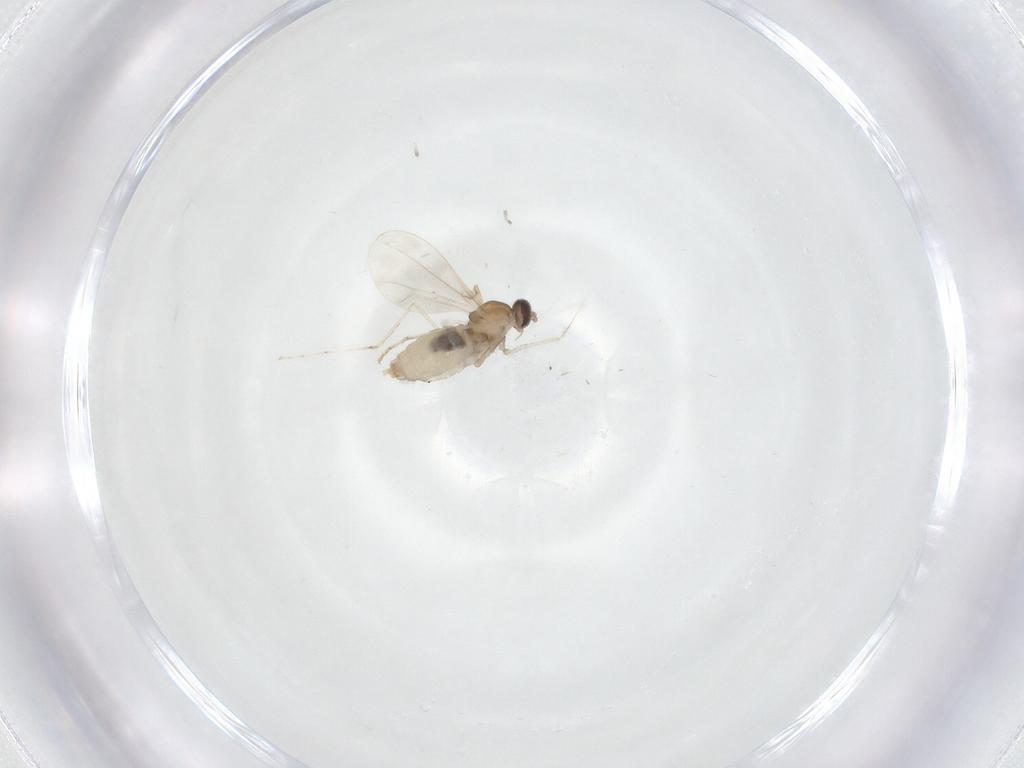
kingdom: Animalia
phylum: Arthropoda
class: Insecta
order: Diptera
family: Cecidomyiidae
